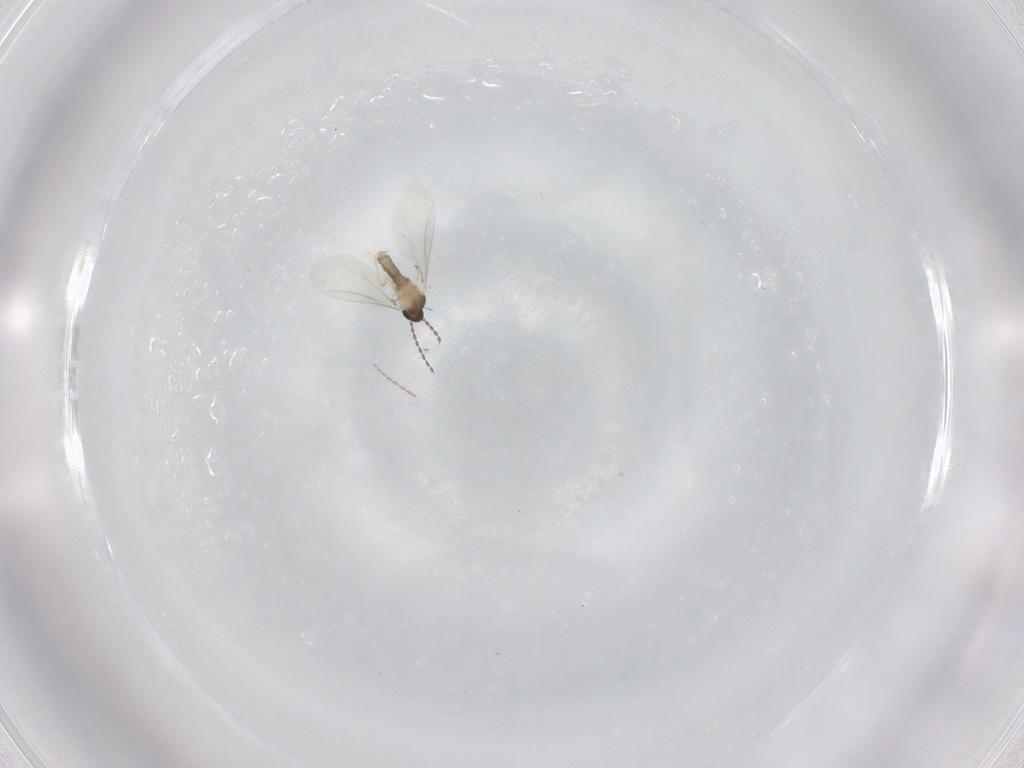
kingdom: Animalia
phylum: Arthropoda
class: Insecta
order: Diptera
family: Cecidomyiidae
